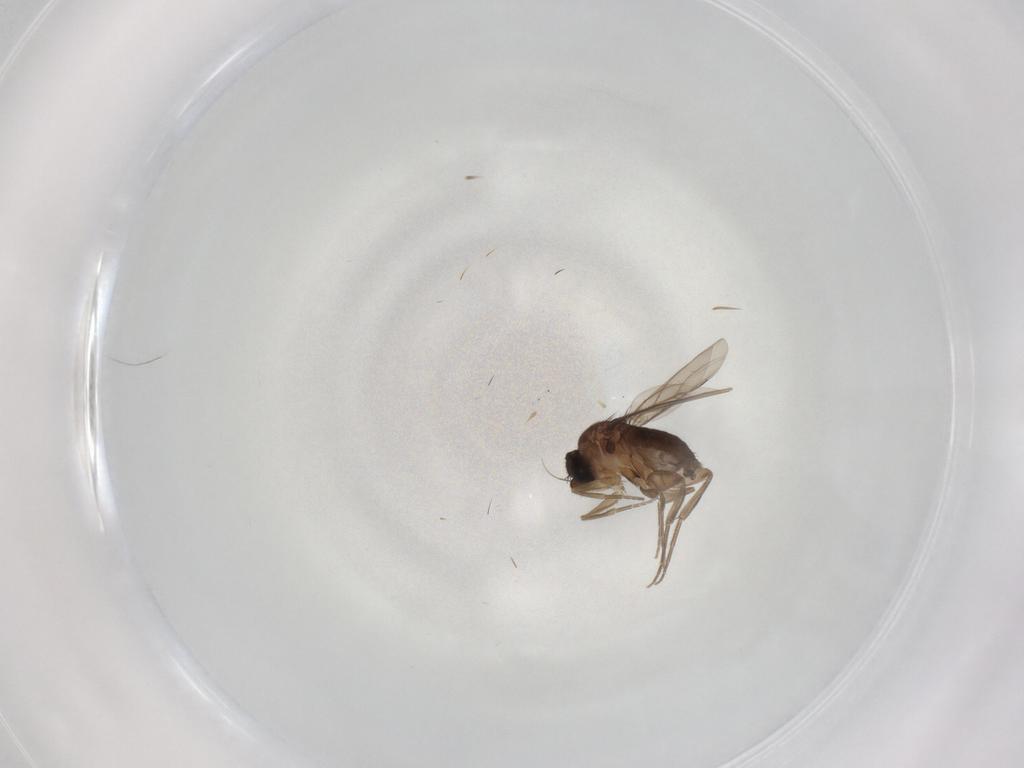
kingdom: Animalia
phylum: Arthropoda
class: Insecta
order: Diptera
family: Phoridae
